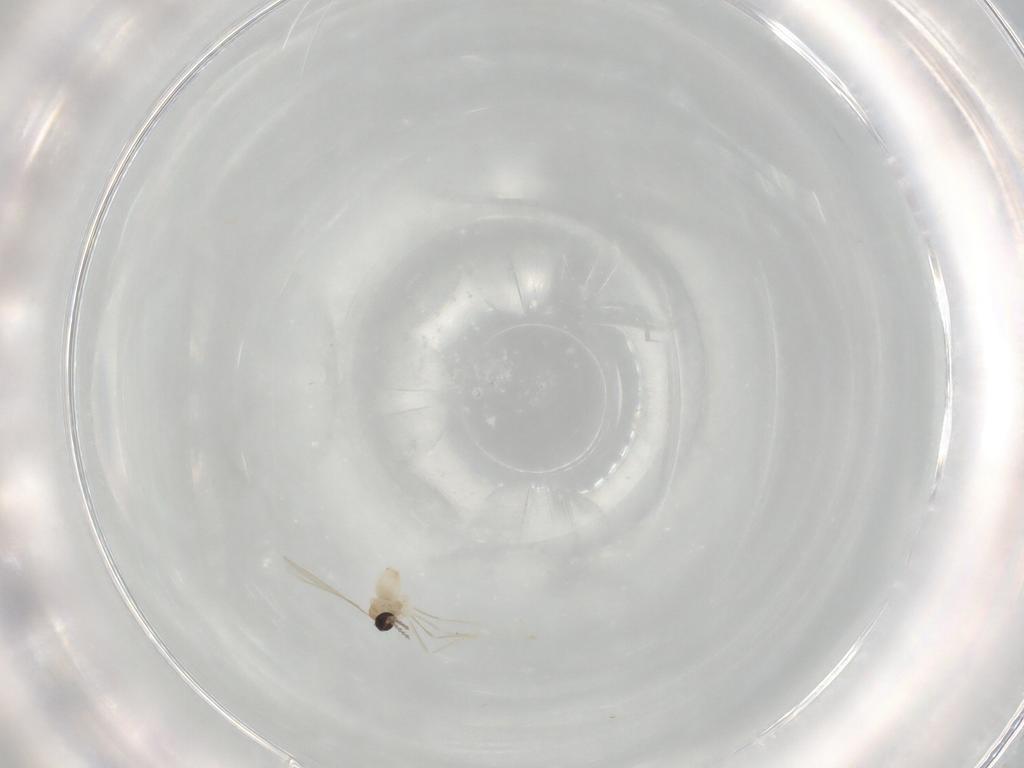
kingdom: Animalia
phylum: Arthropoda
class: Insecta
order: Diptera
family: Cecidomyiidae
